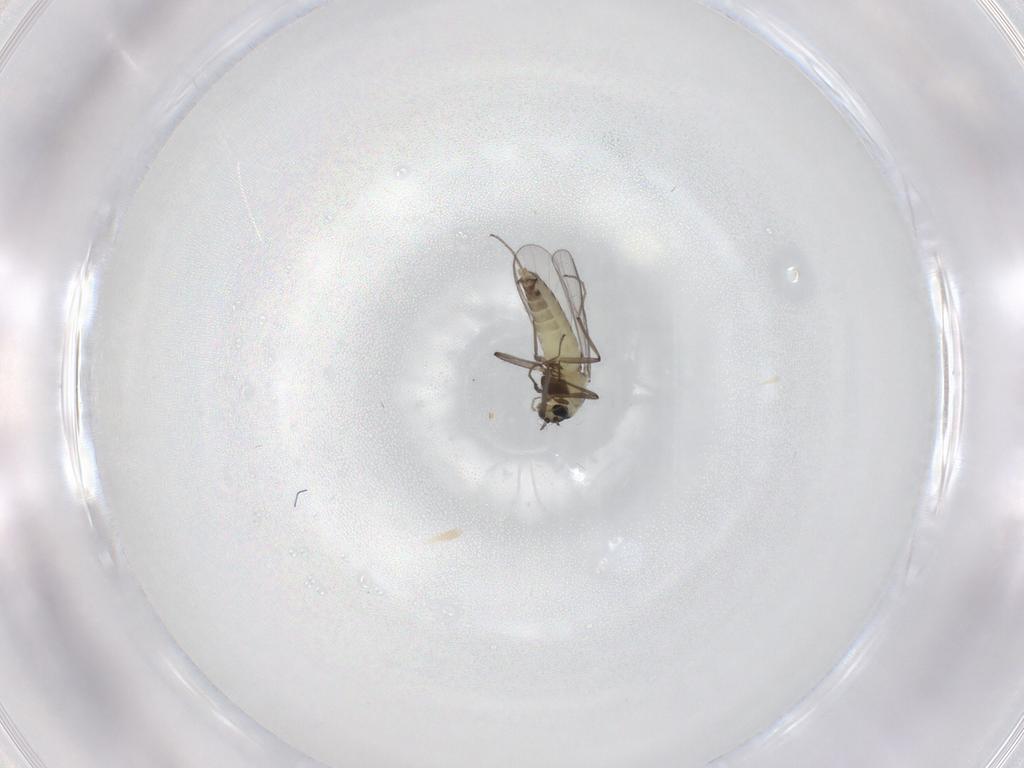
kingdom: Animalia
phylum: Arthropoda
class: Insecta
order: Diptera
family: Chironomidae
